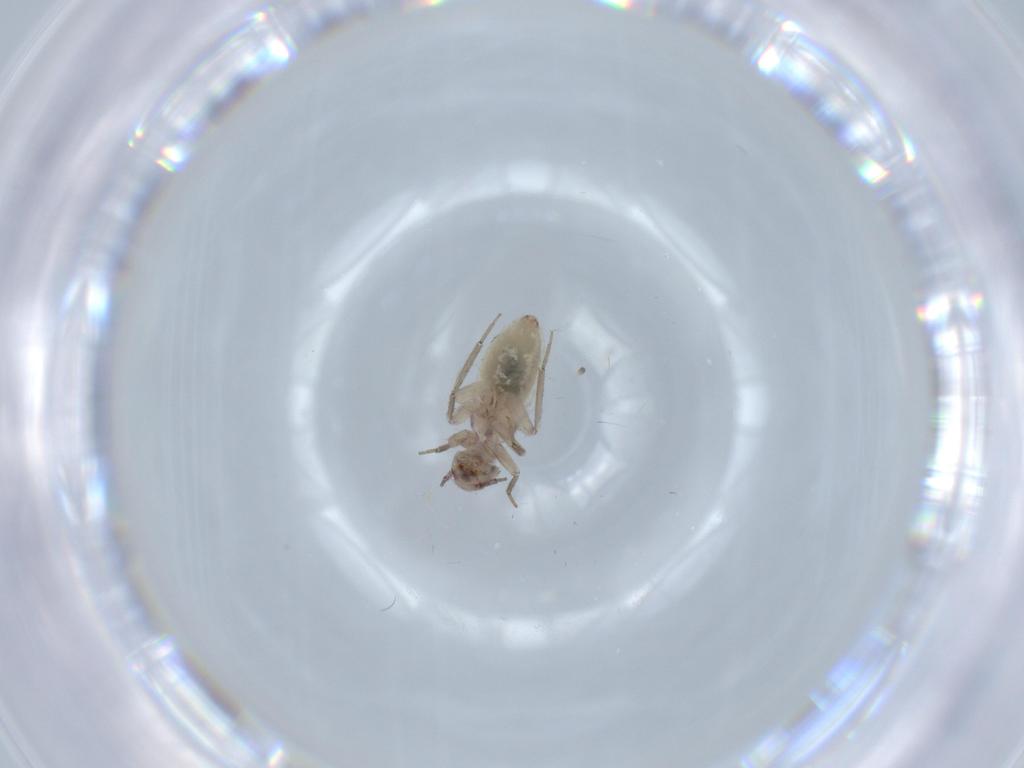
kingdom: Animalia
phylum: Arthropoda
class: Insecta
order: Psocodea
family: Lepidopsocidae
